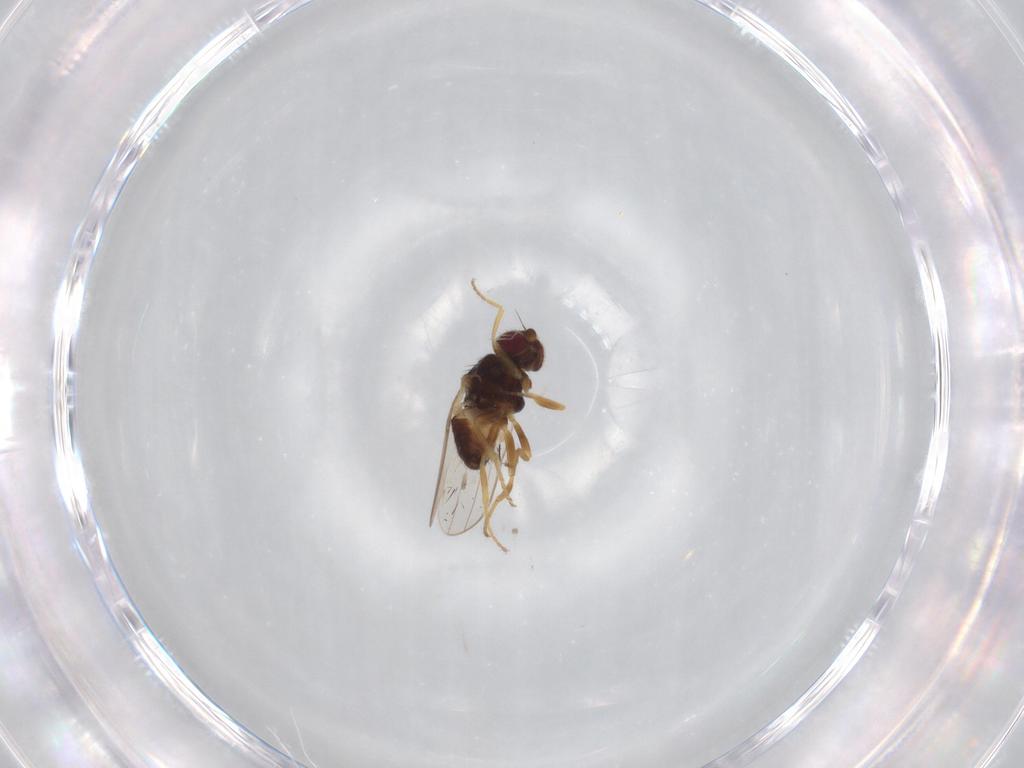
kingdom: Animalia
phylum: Arthropoda
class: Insecta
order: Diptera
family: Chloropidae
